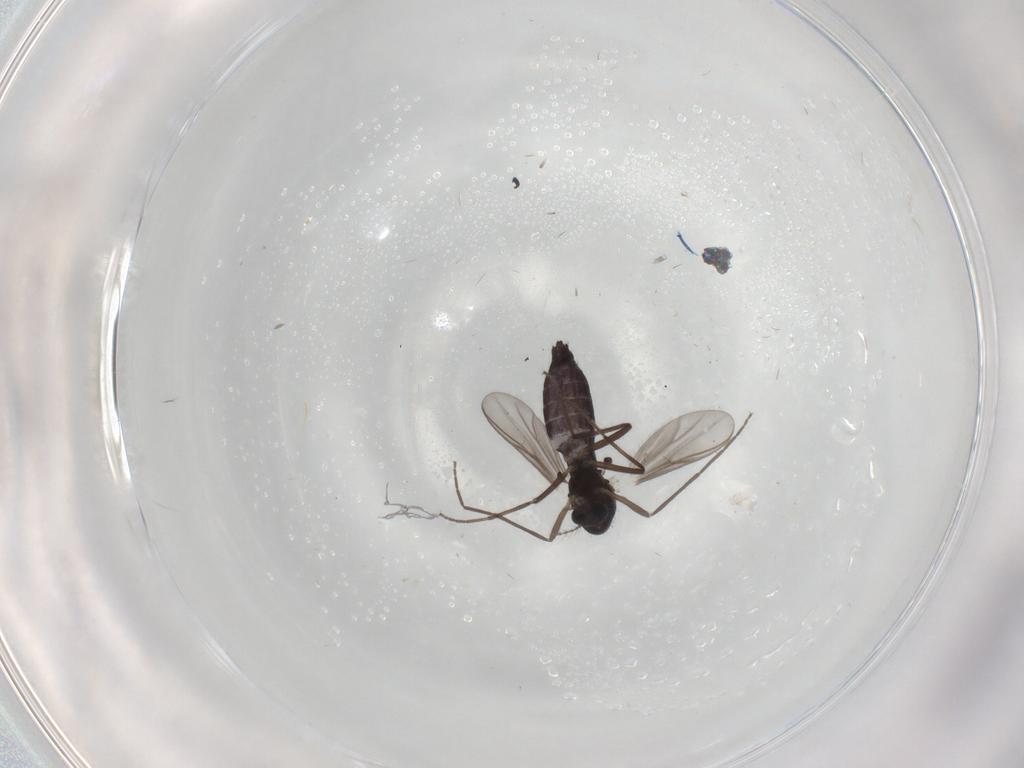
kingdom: Animalia
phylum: Arthropoda
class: Insecta
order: Diptera
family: Chironomidae
